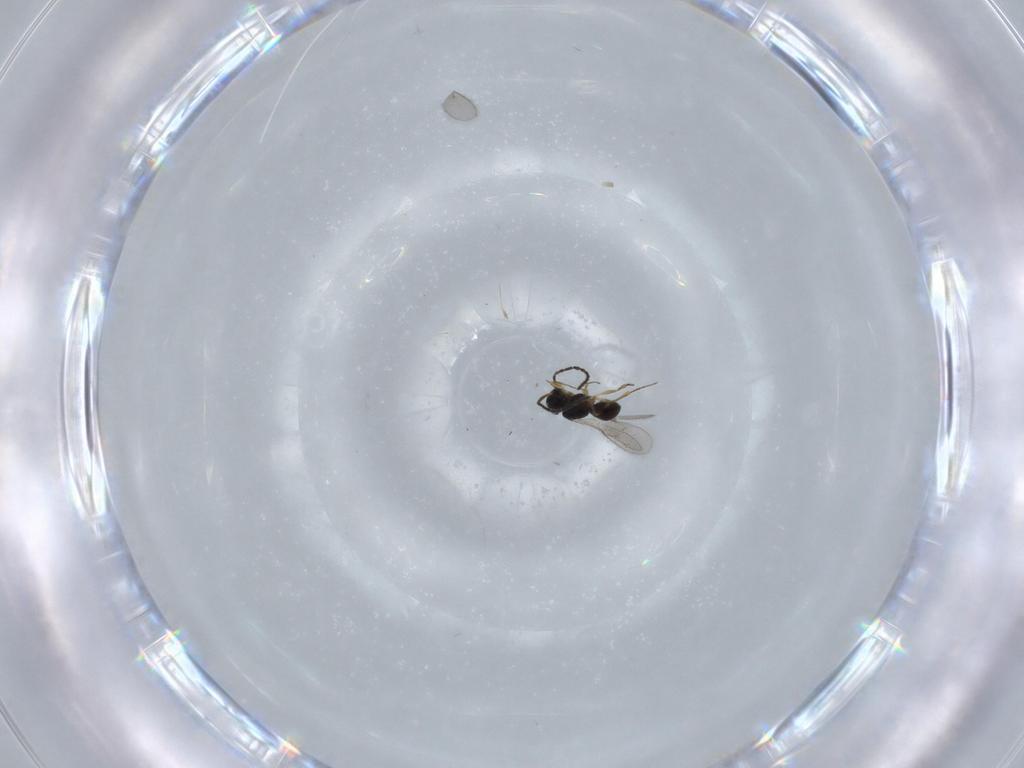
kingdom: Animalia
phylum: Arthropoda
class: Insecta
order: Hymenoptera
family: Scelionidae
